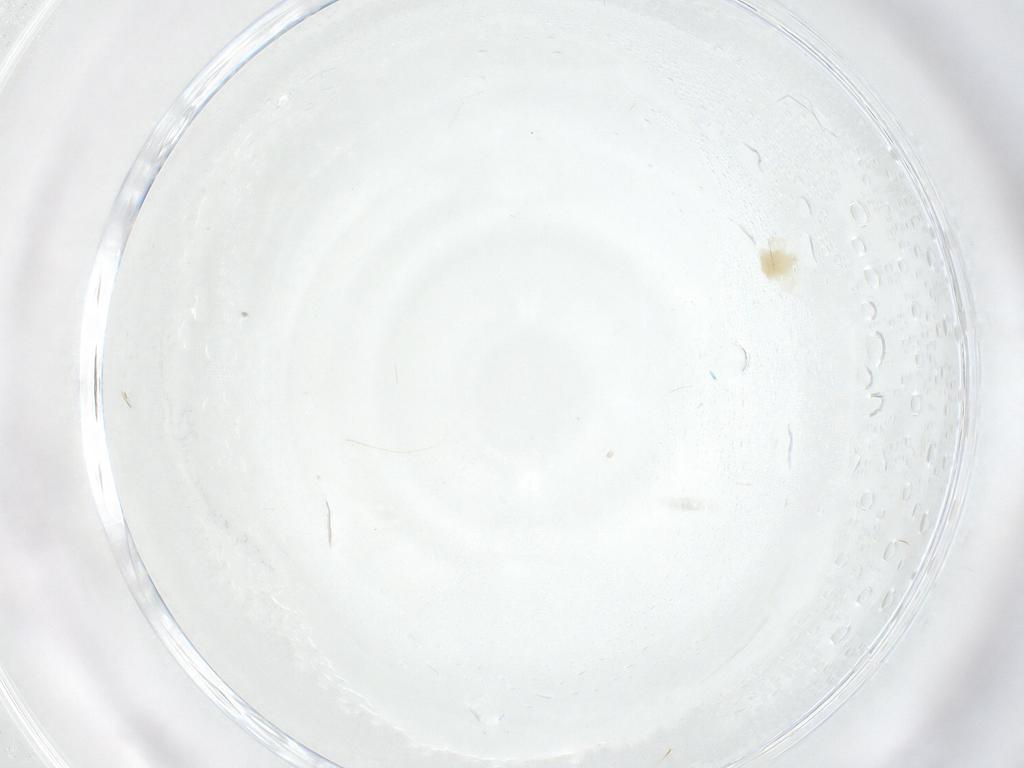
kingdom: Animalia
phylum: Arthropoda
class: Arachnida
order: Trombidiformes
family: Anystidae
